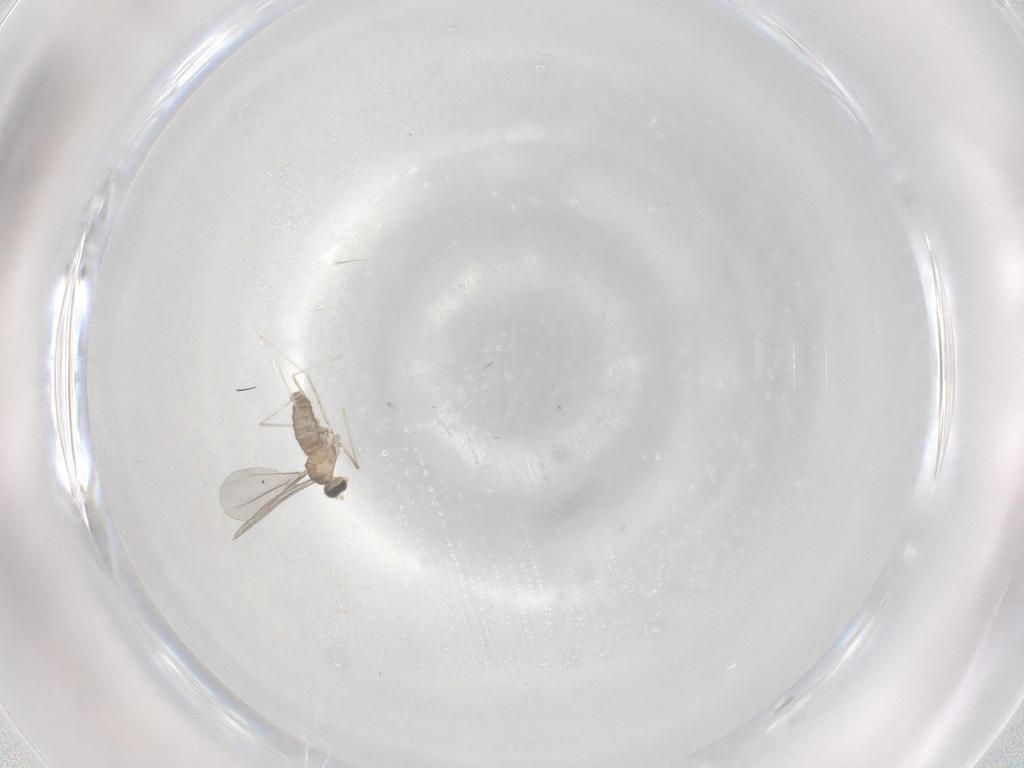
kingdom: Animalia
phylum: Arthropoda
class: Insecta
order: Diptera
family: Cecidomyiidae
